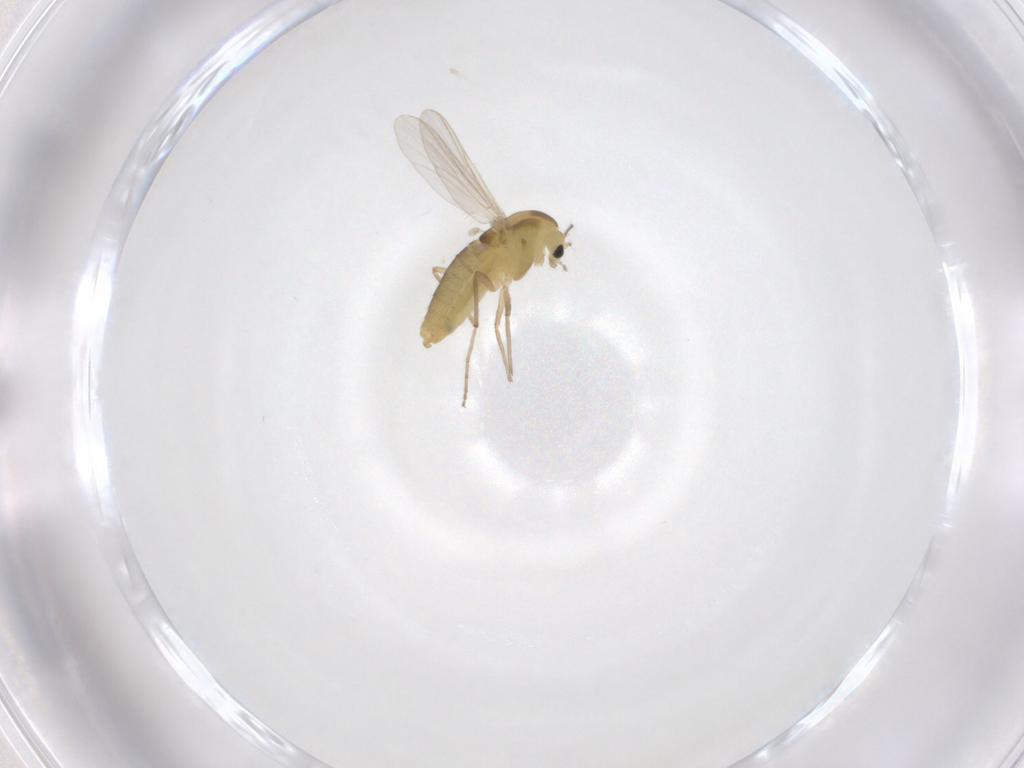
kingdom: Animalia
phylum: Arthropoda
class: Insecta
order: Diptera
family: Chironomidae
